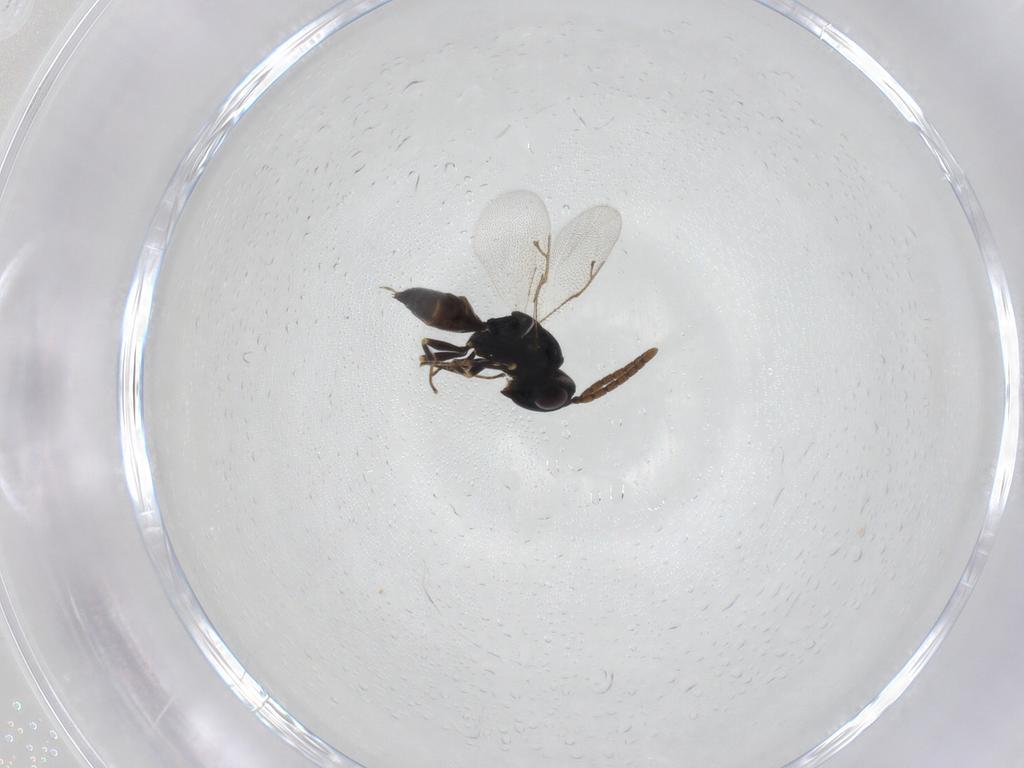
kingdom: Animalia
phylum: Arthropoda
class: Insecta
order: Hymenoptera
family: Pteromalidae
